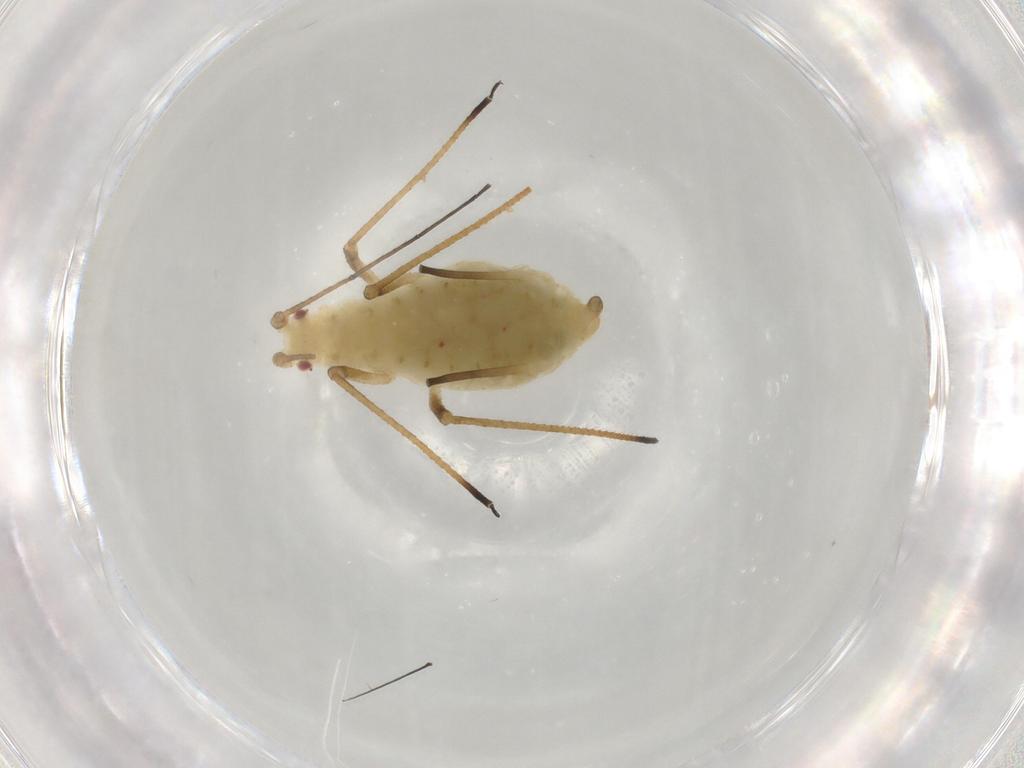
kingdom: Animalia
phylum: Arthropoda
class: Insecta
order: Hemiptera
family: Aphididae
